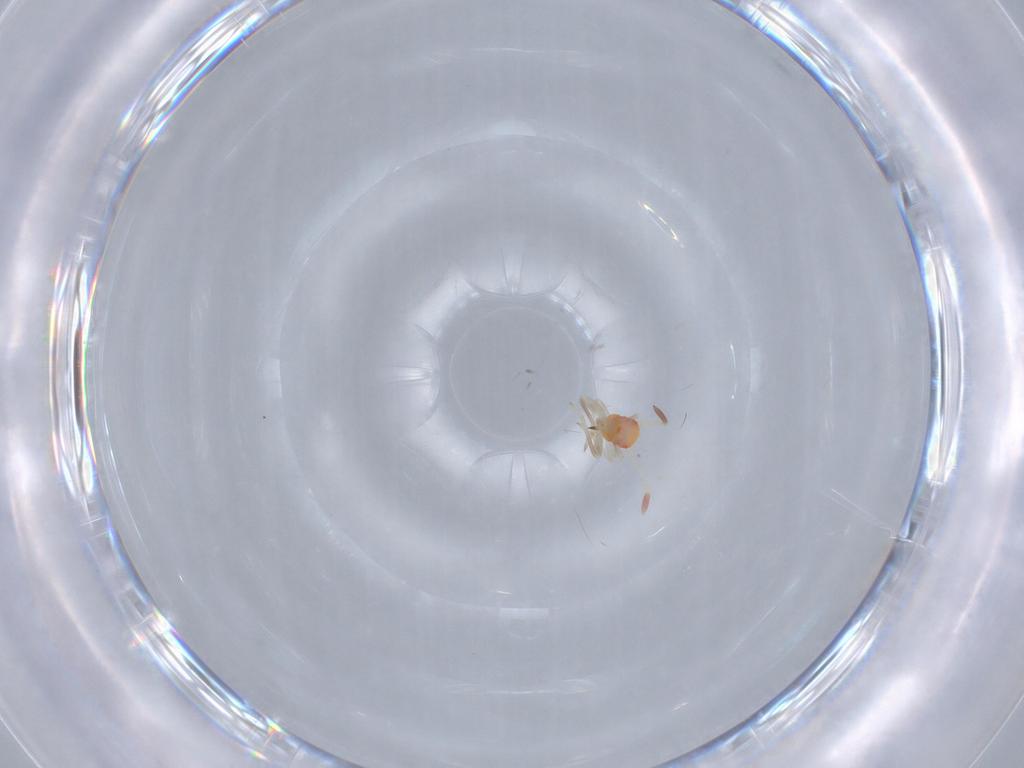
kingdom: Animalia
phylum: Arthropoda
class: Insecta
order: Hemiptera
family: Miridae
